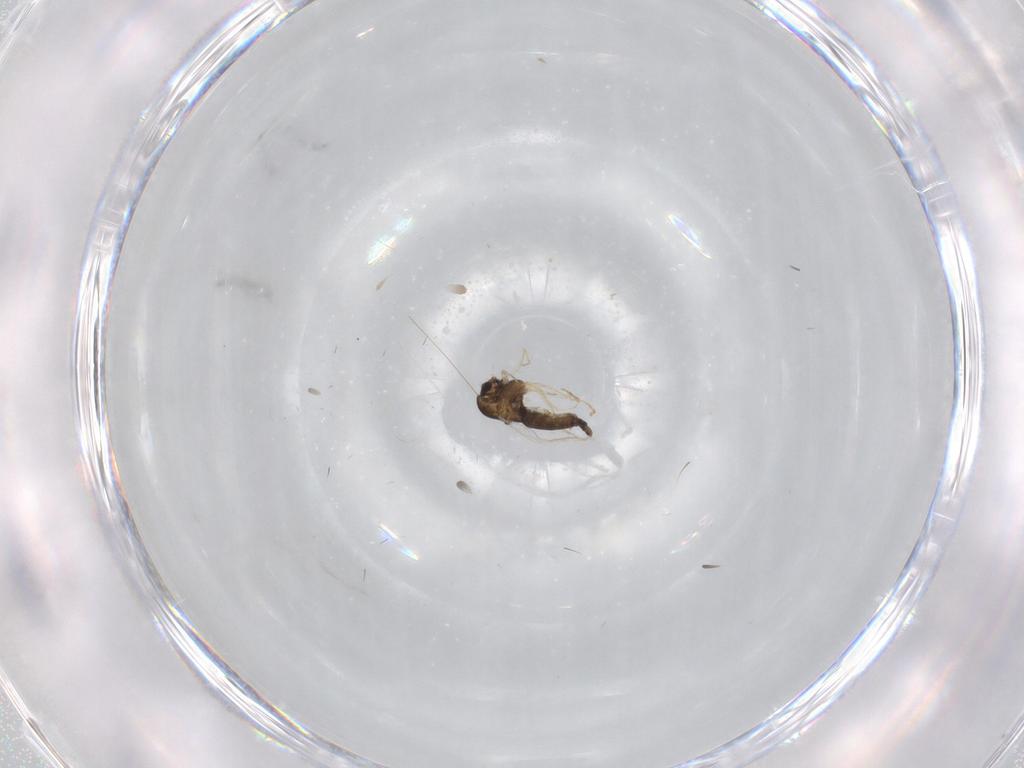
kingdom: Animalia
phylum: Arthropoda
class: Insecta
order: Diptera
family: Chironomidae
